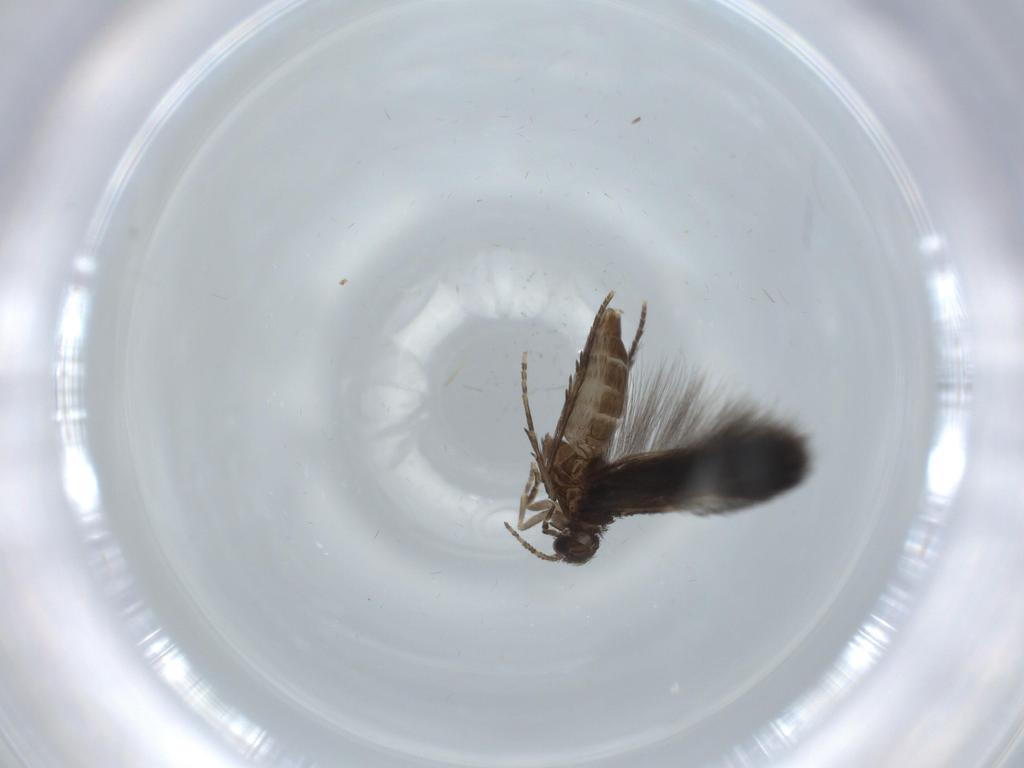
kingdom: Animalia
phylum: Arthropoda
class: Insecta
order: Trichoptera
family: Hydroptilidae
